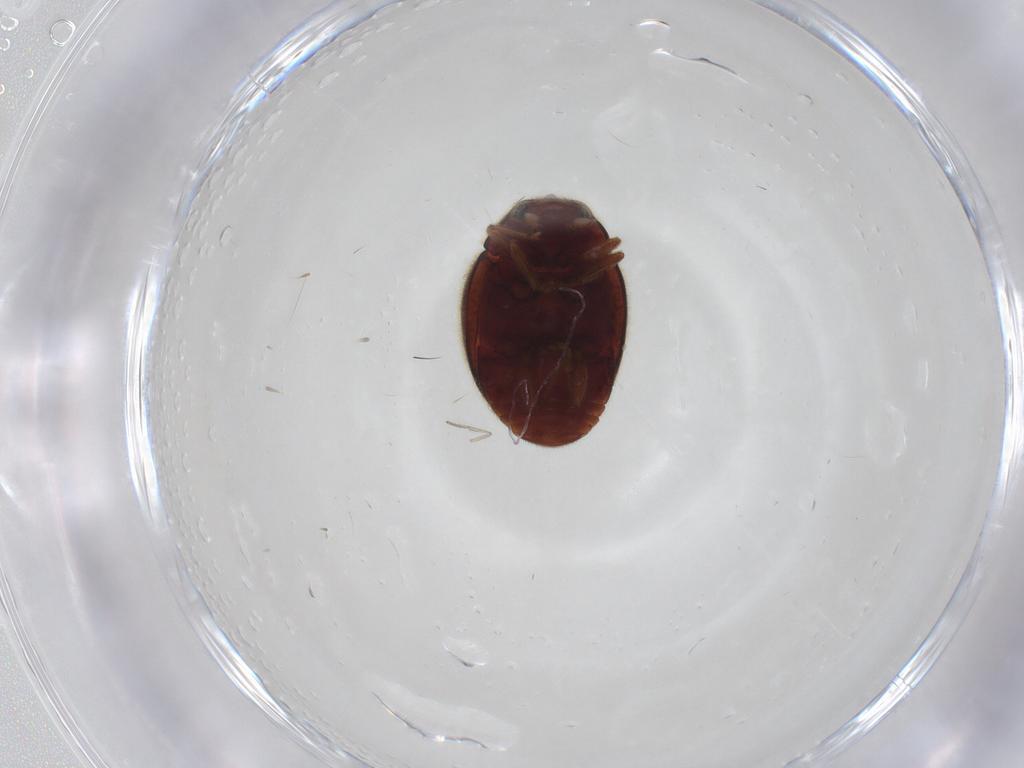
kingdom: Animalia
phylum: Arthropoda
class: Insecta
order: Coleoptera
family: Coccinellidae
